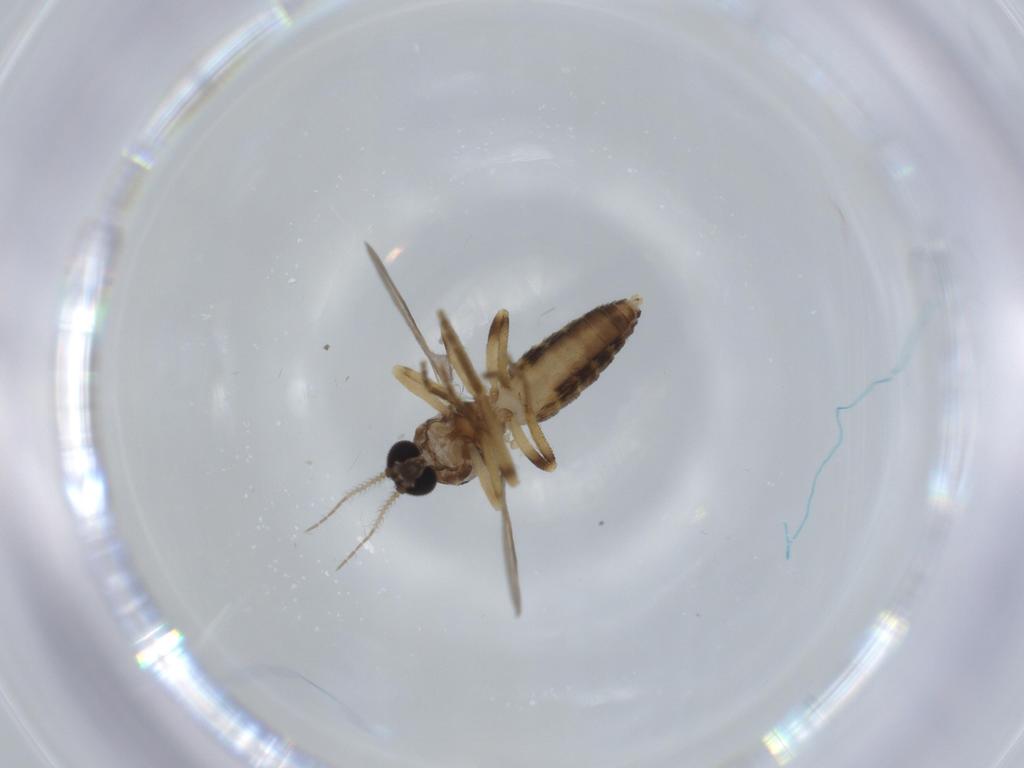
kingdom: Animalia
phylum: Arthropoda
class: Insecta
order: Diptera
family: Ceratopogonidae
